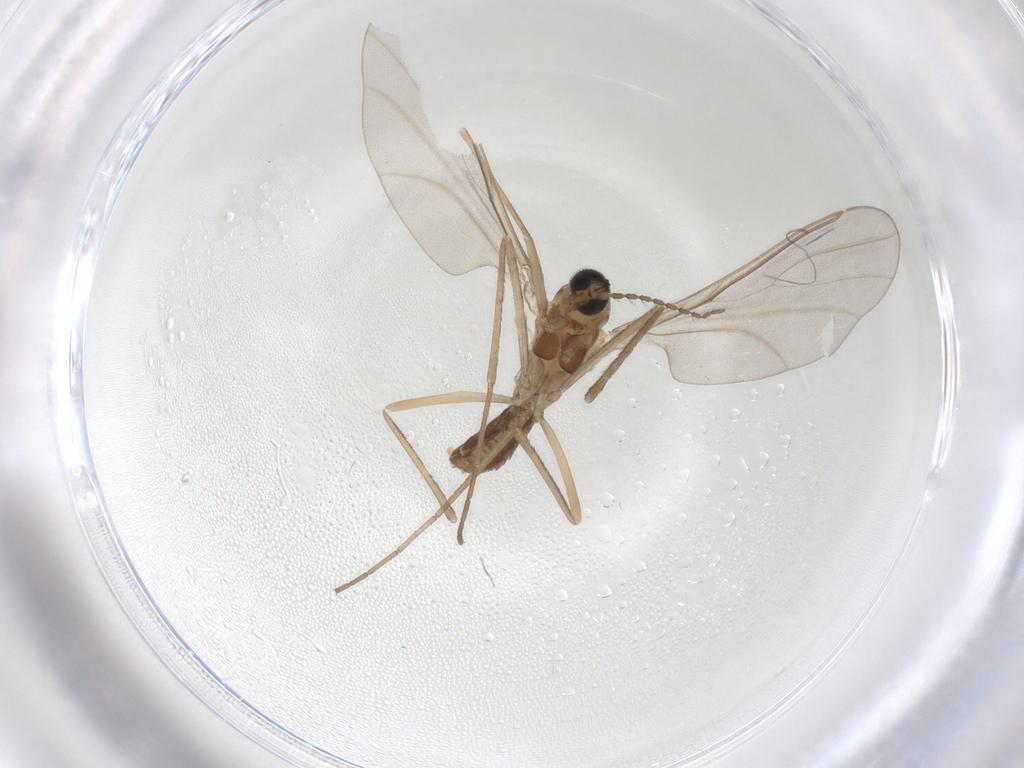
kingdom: Animalia
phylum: Arthropoda
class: Insecta
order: Diptera
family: Cecidomyiidae
